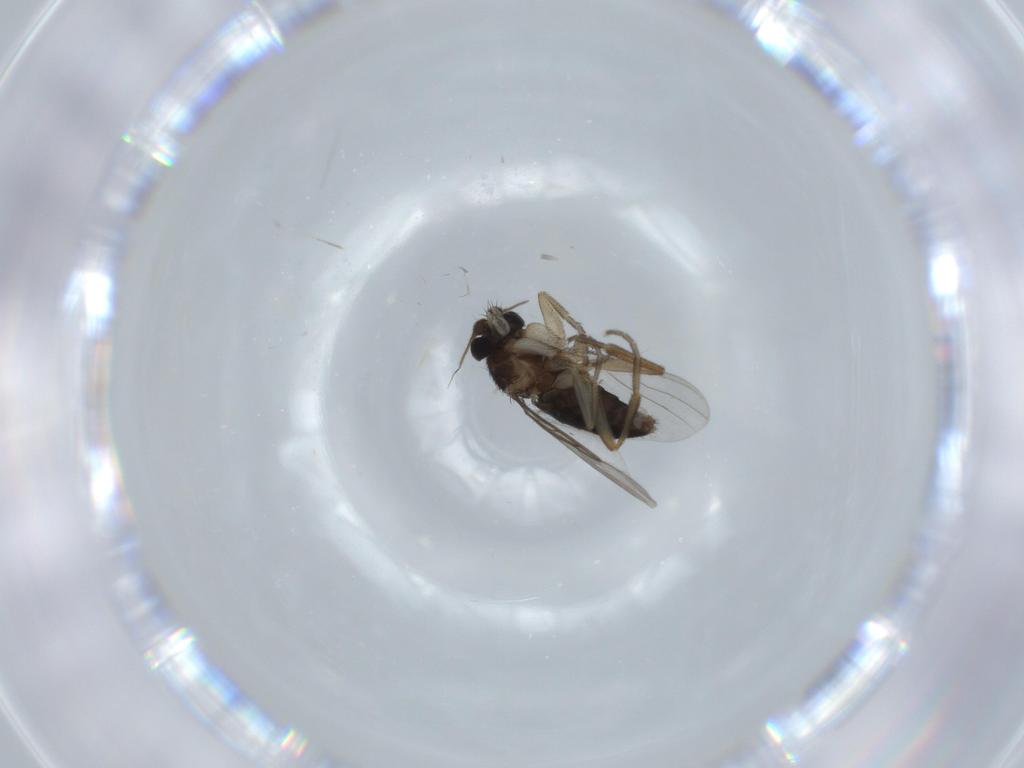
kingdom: Animalia
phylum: Arthropoda
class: Insecta
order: Diptera
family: Phoridae
